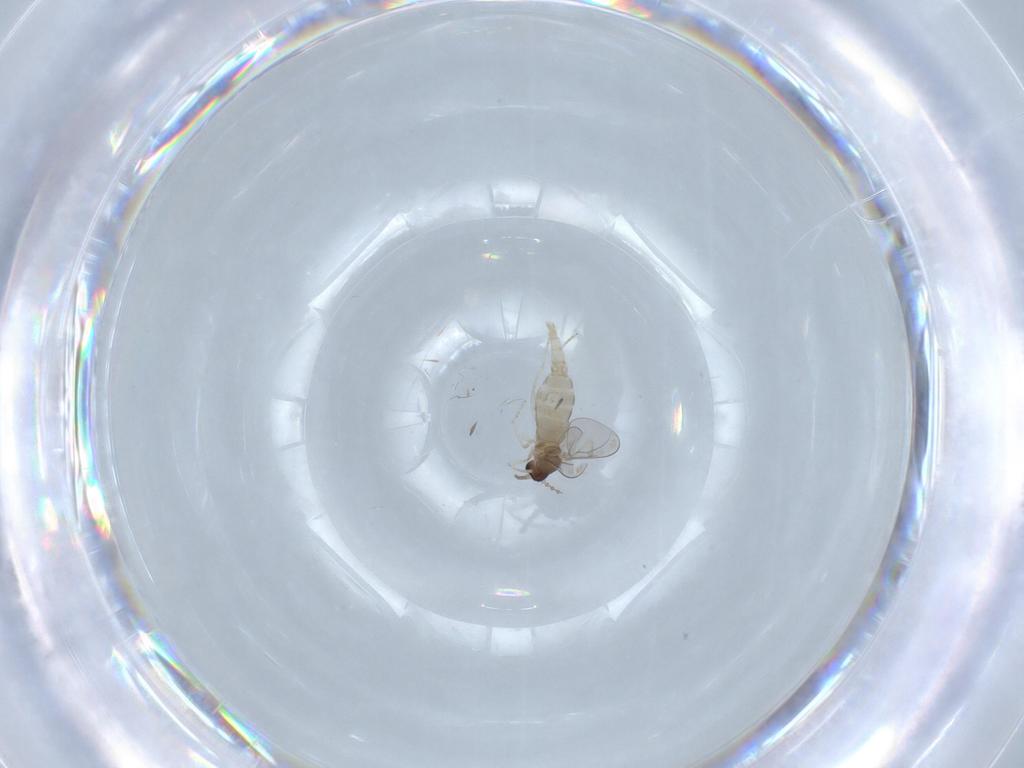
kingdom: Animalia
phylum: Arthropoda
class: Insecta
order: Diptera
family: Cecidomyiidae
